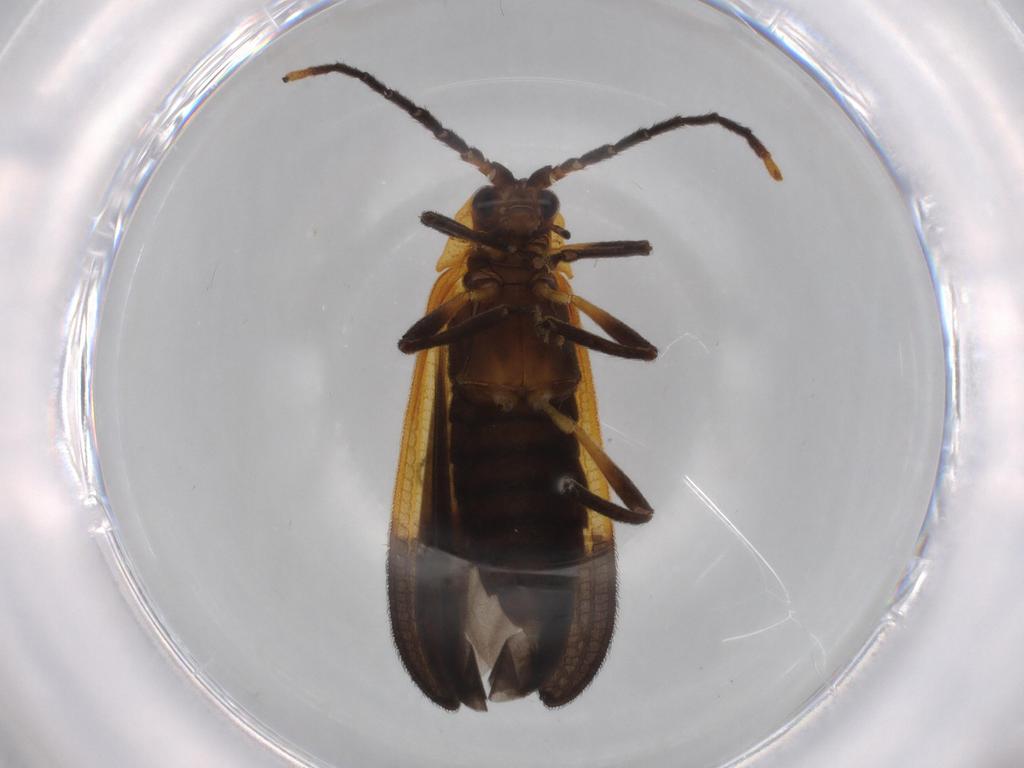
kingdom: Animalia
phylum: Arthropoda
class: Insecta
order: Coleoptera
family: Lycidae
